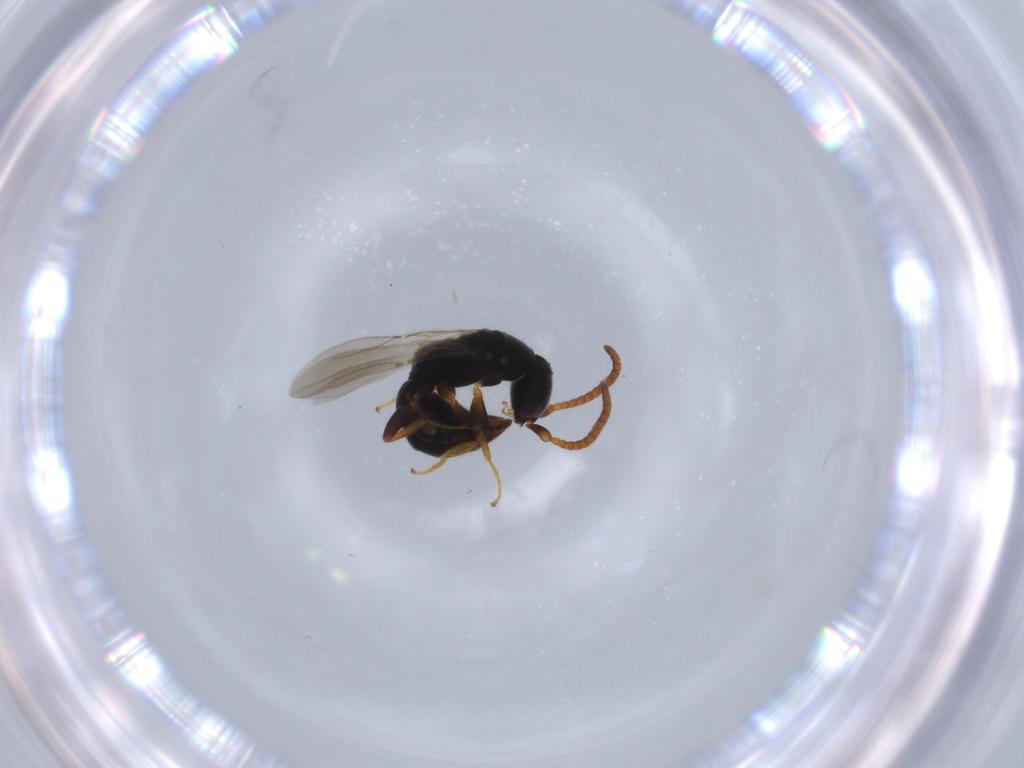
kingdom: Animalia
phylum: Arthropoda
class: Insecta
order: Hymenoptera
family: Bethylidae
